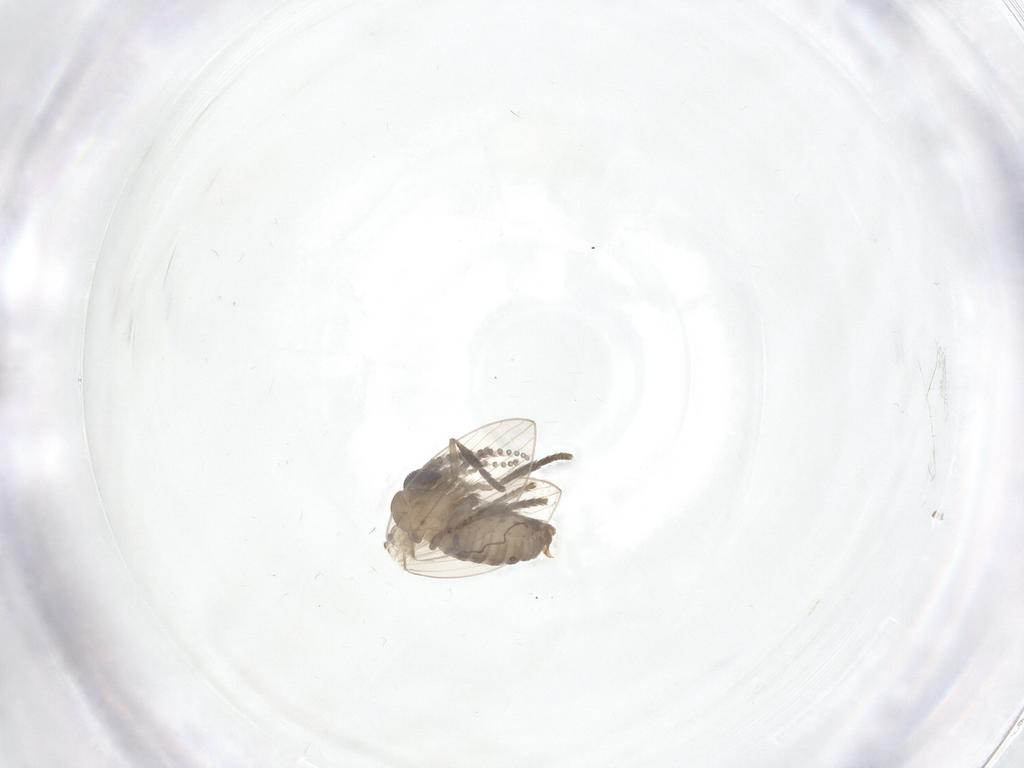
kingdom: Animalia
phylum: Arthropoda
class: Insecta
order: Diptera
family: Psychodidae
